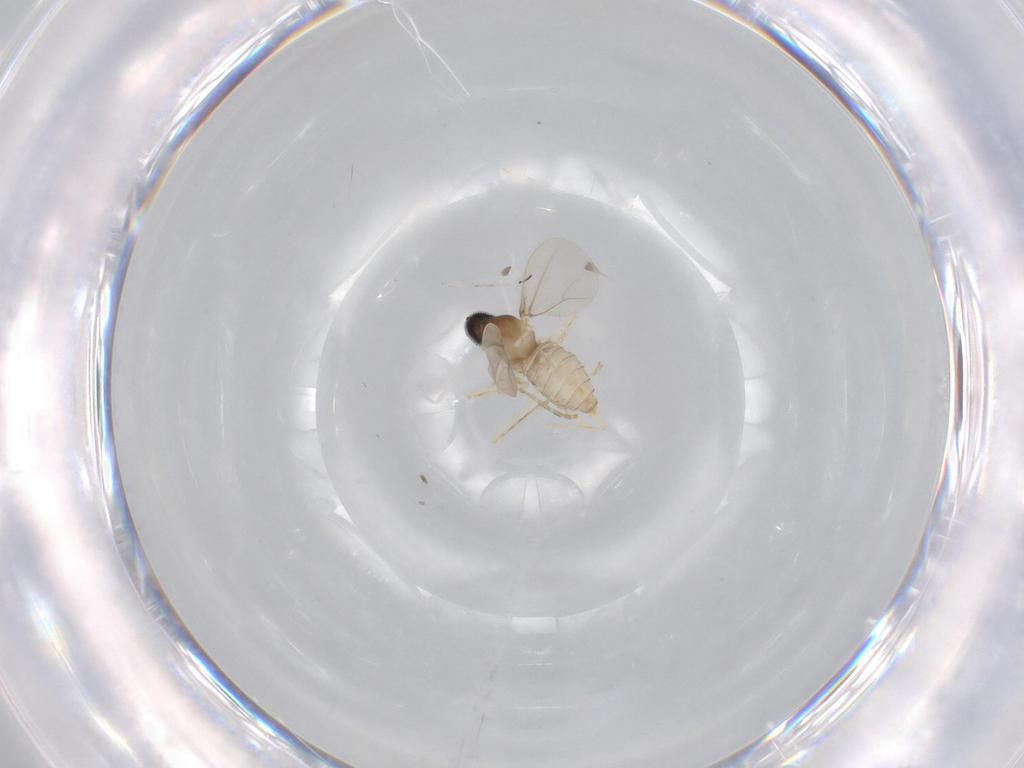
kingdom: Animalia
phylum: Arthropoda
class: Insecta
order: Diptera
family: Cecidomyiidae
